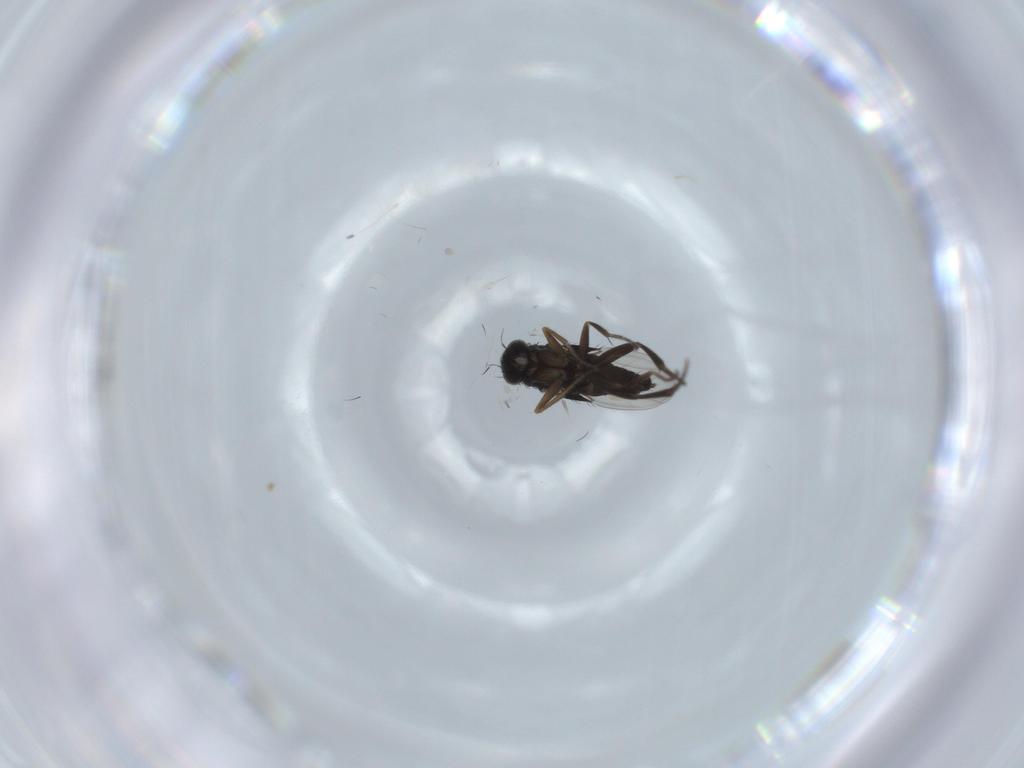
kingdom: Animalia
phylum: Arthropoda
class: Insecta
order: Diptera
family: Phoridae
